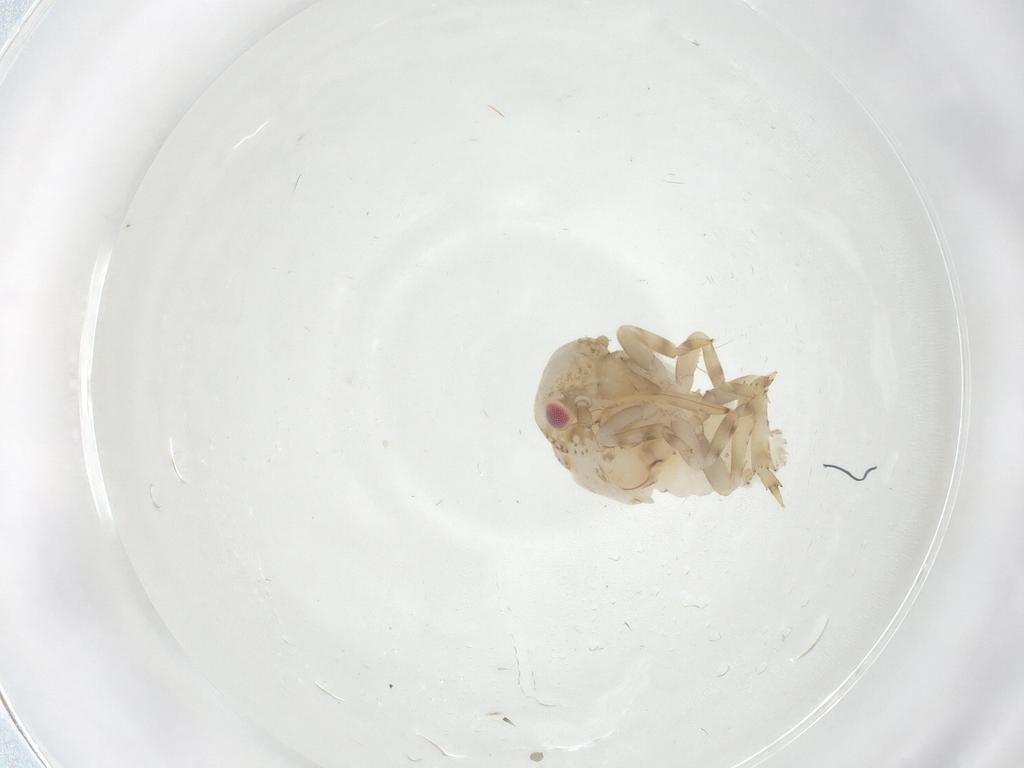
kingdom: Animalia
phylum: Arthropoda
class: Insecta
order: Hemiptera
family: Acanaloniidae
